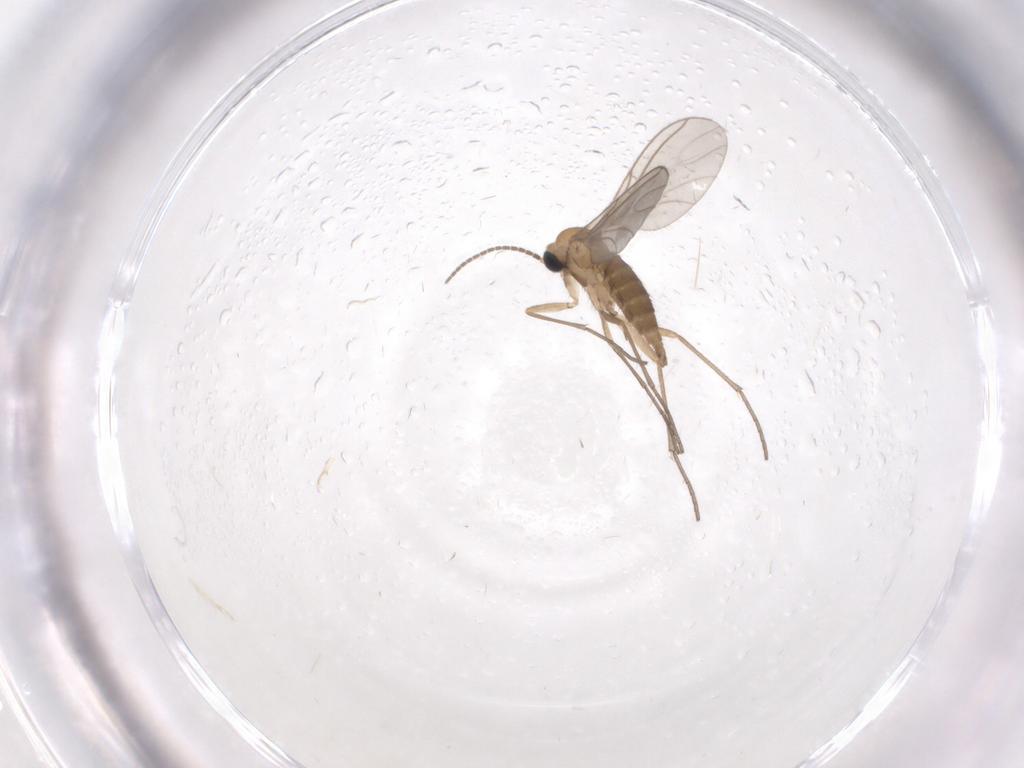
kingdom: Animalia
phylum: Arthropoda
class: Insecta
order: Diptera
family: Sciaridae
